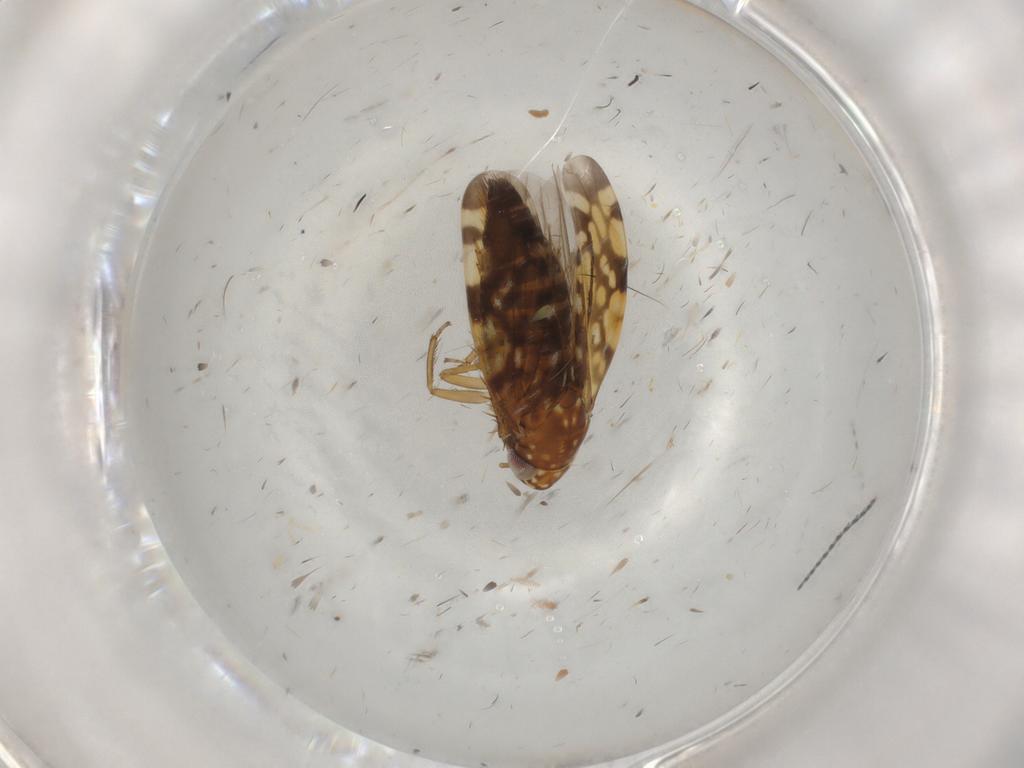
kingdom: Animalia
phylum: Arthropoda
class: Insecta
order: Hemiptera
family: Cicadellidae
